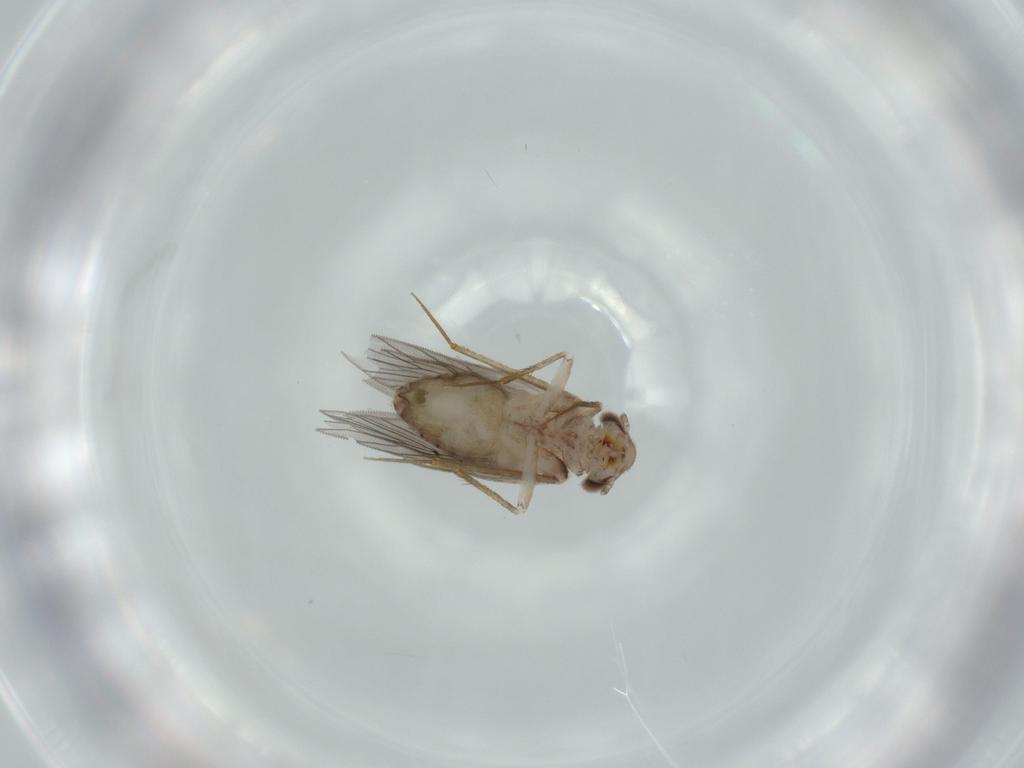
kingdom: Animalia
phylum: Arthropoda
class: Insecta
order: Psocodea
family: Lepidopsocidae
